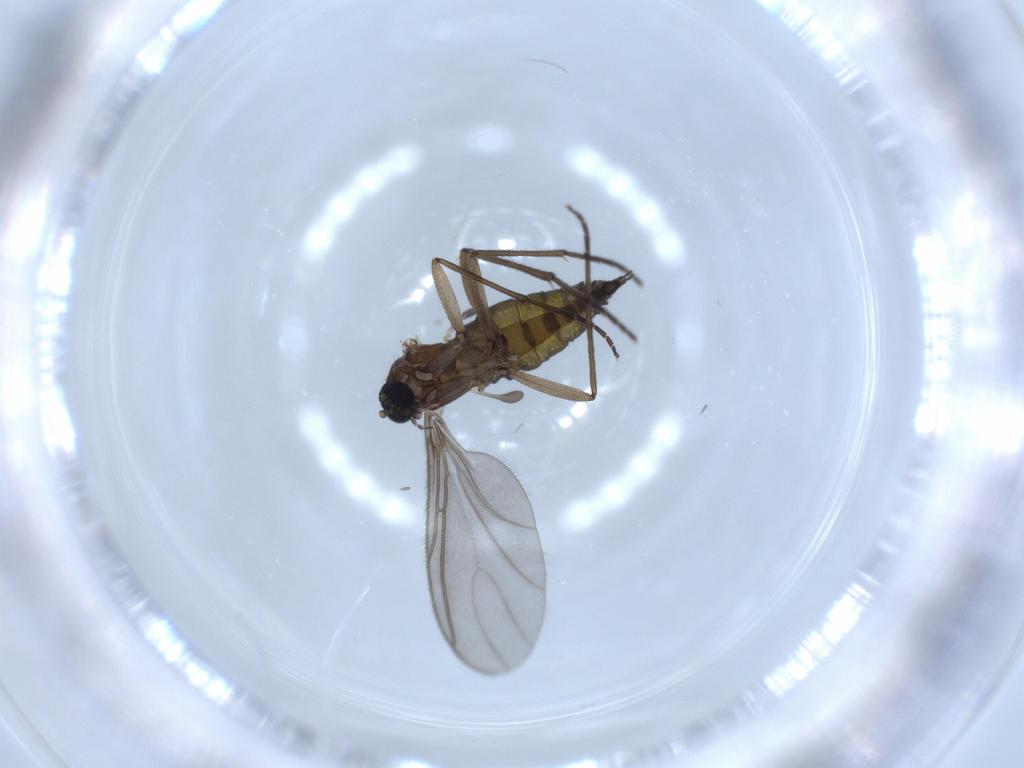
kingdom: Animalia
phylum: Arthropoda
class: Insecta
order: Diptera
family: Sciaridae
